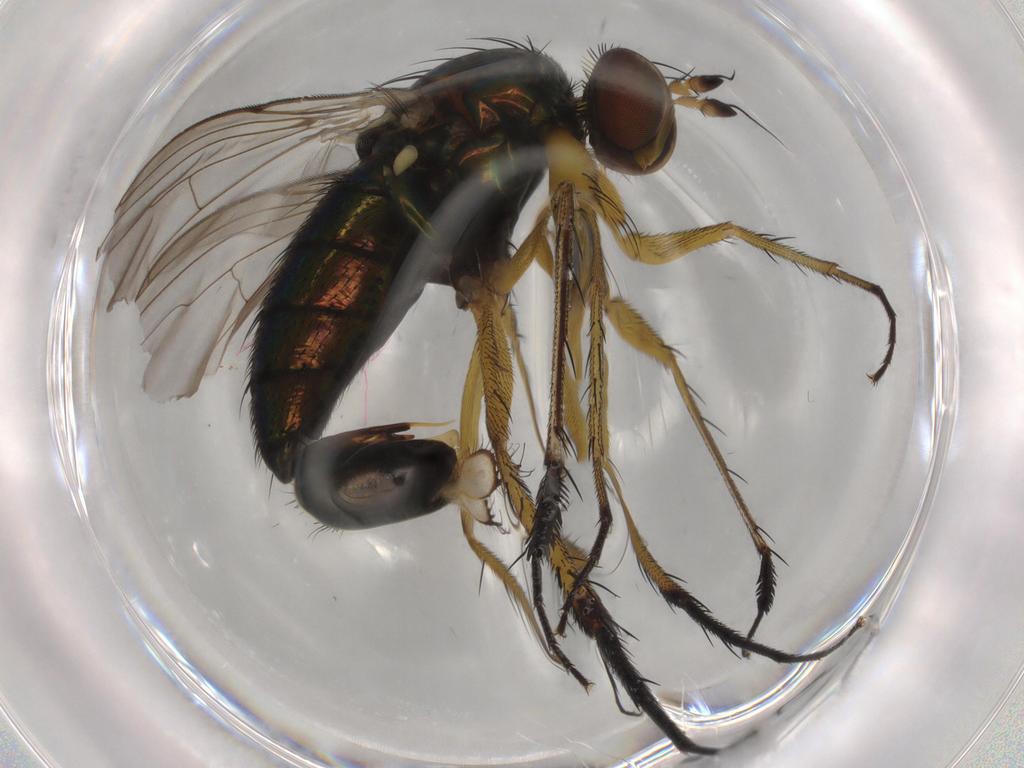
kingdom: Animalia
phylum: Arthropoda
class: Insecta
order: Diptera
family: Dolichopodidae
